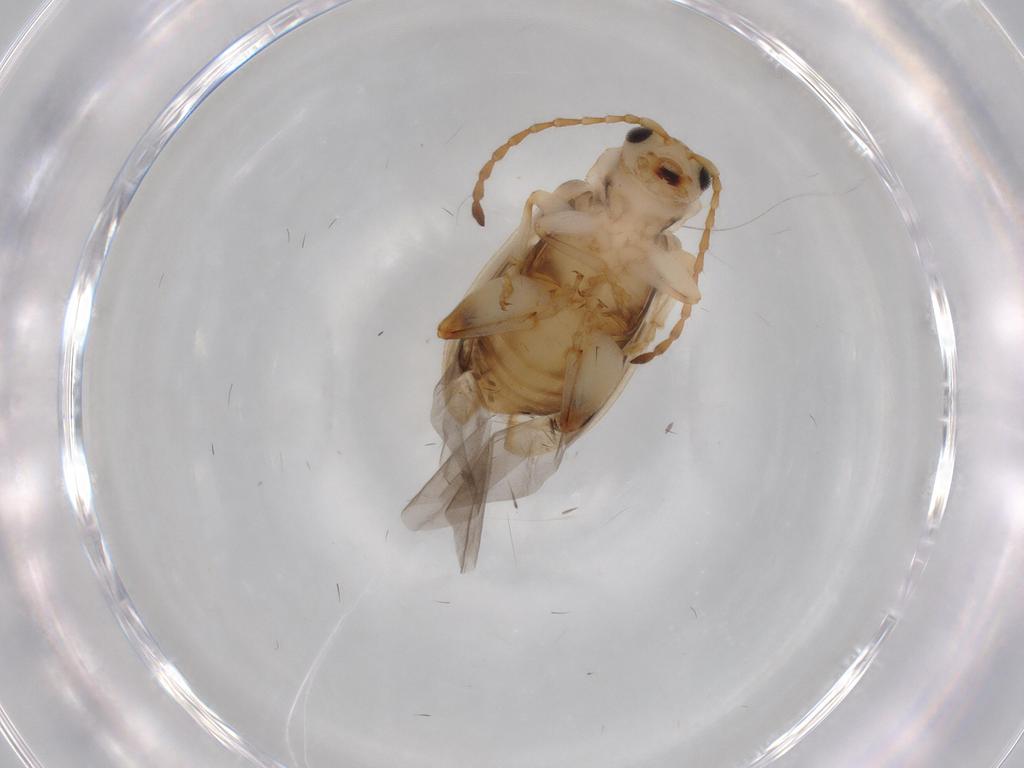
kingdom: Animalia
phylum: Arthropoda
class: Insecta
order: Coleoptera
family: Chrysomelidae
